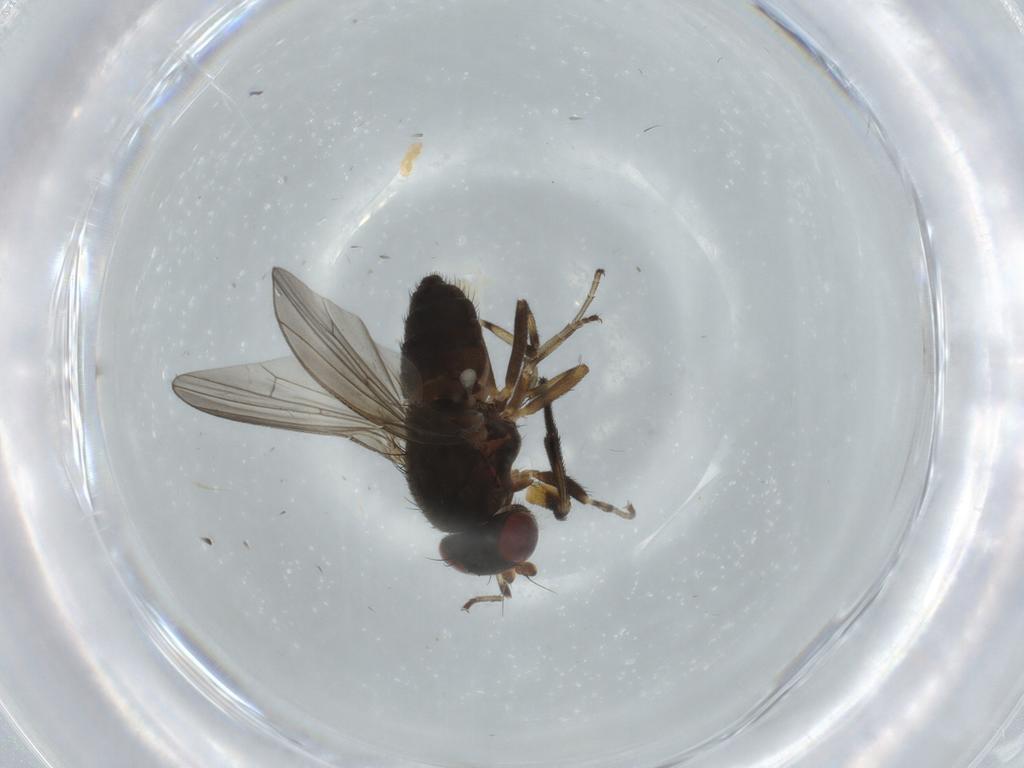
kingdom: Animalia
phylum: Arthropoda
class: Insecta
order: Diptera
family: Heleomyzidae
